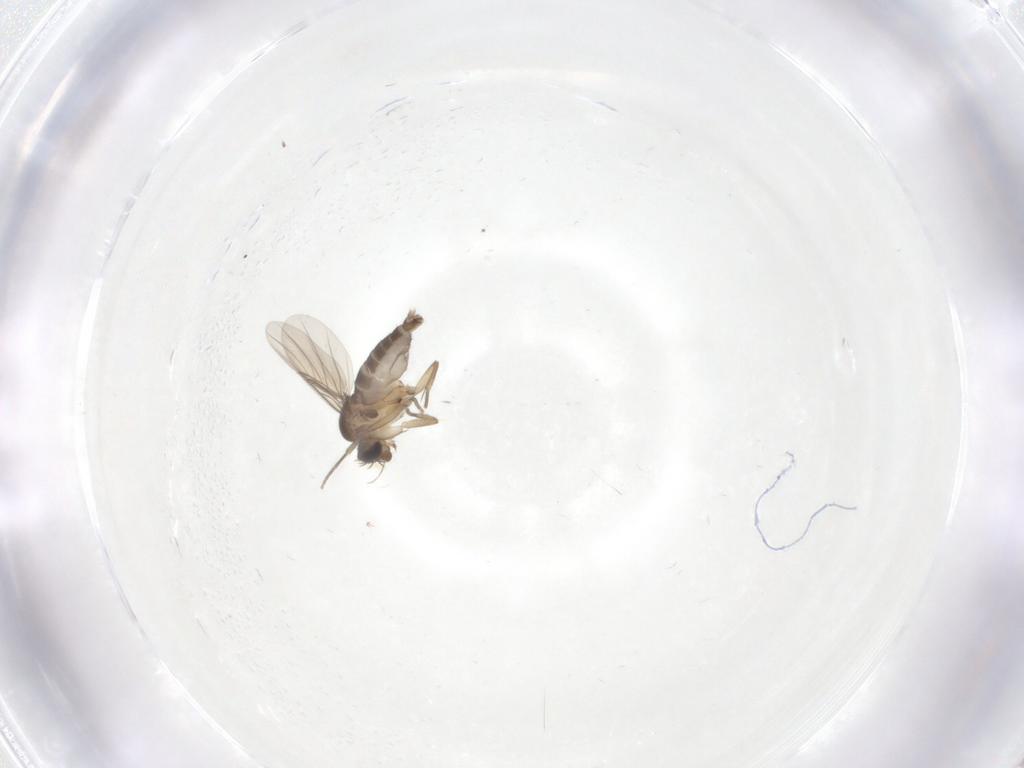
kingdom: Animalia
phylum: Arthropoda
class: Insecta
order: Diptera
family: Phoridae
